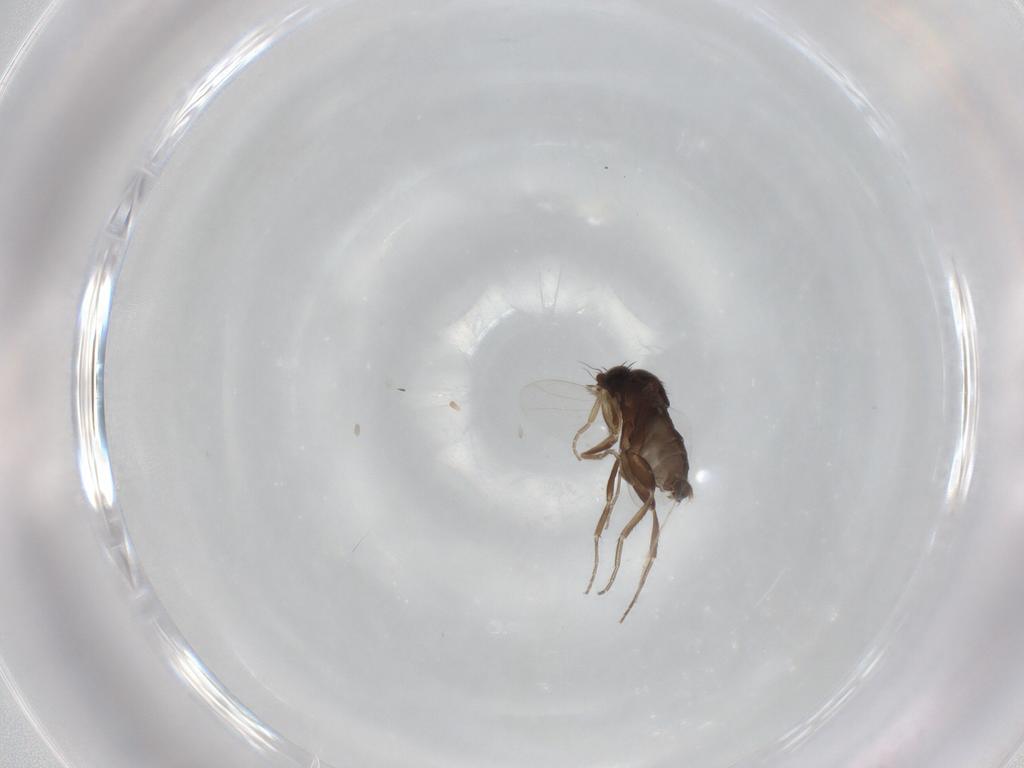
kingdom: Animalia
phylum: Arthropoda
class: Insecta
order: Diptera
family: Phoridae
